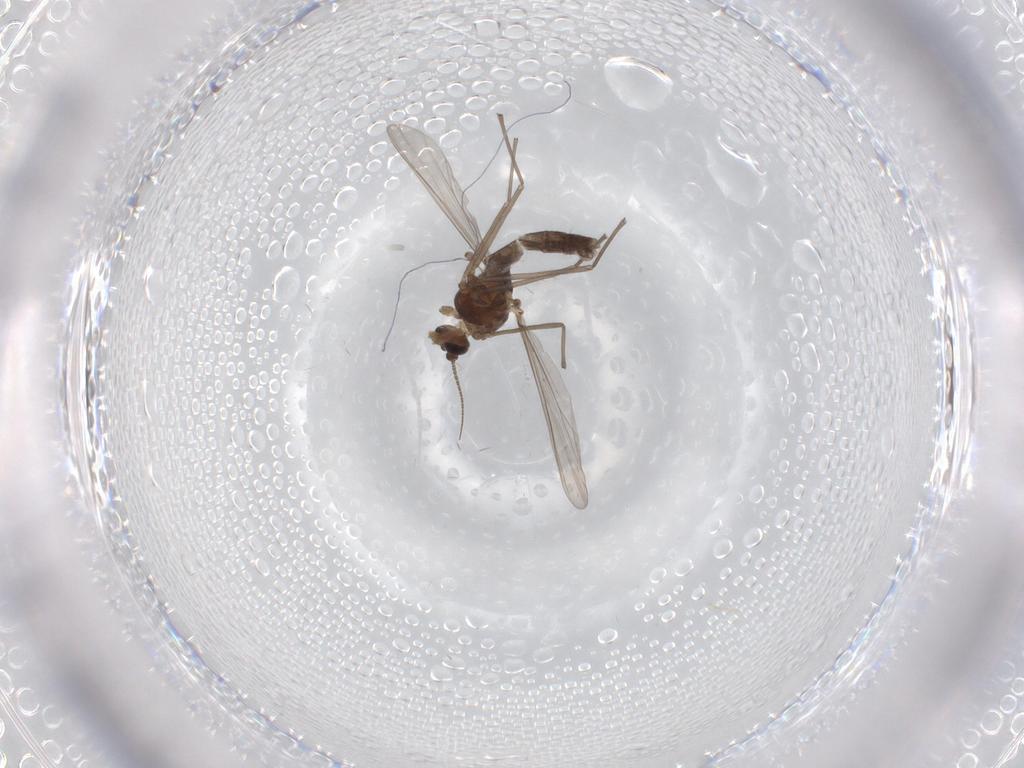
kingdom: Animalia
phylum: Arthropoda
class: Insecta
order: Diptera
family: Chironomidae
